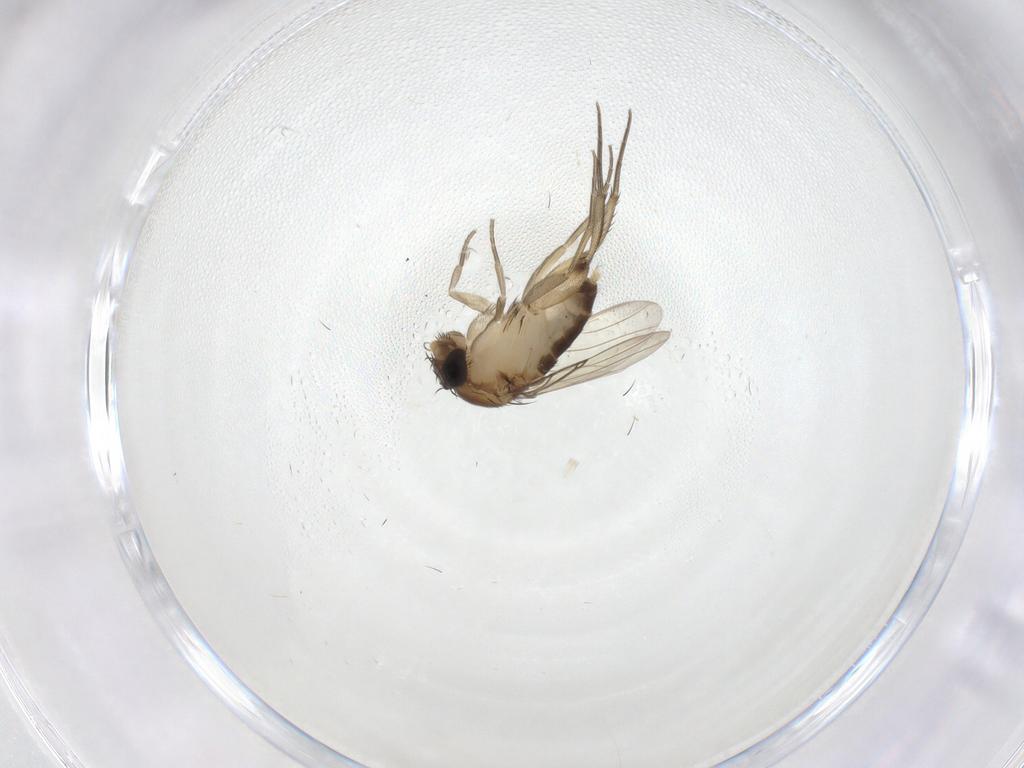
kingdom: Animalia
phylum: Arthropoda
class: Insecta
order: Diptera
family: Phoridae
